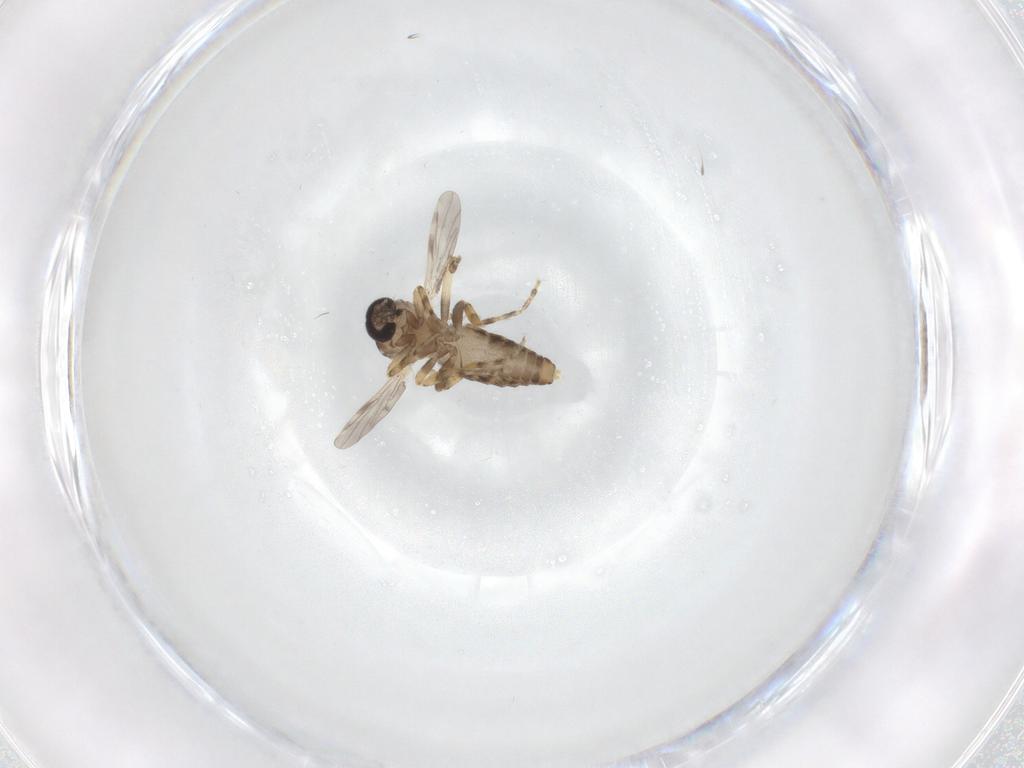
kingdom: Animalia
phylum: Arthropoda
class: Insecta
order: Diptera
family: Ceratopogonidae
